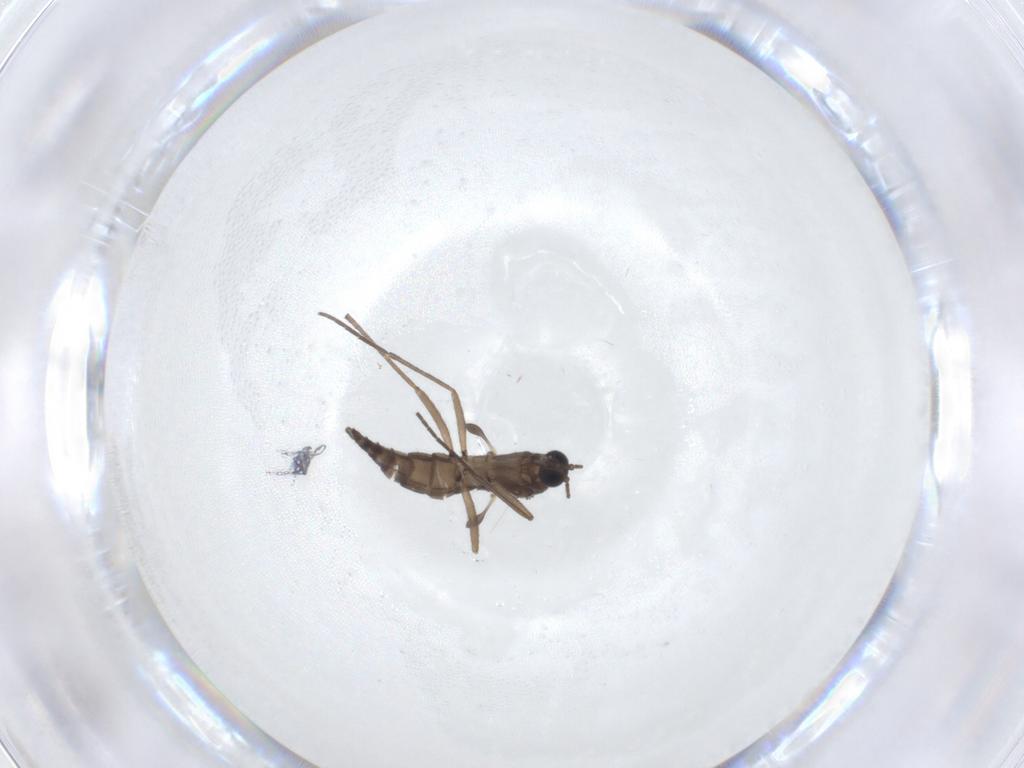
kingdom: Animalia
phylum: Arthropoda
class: Insecta
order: Diptera
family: Sciaridae
